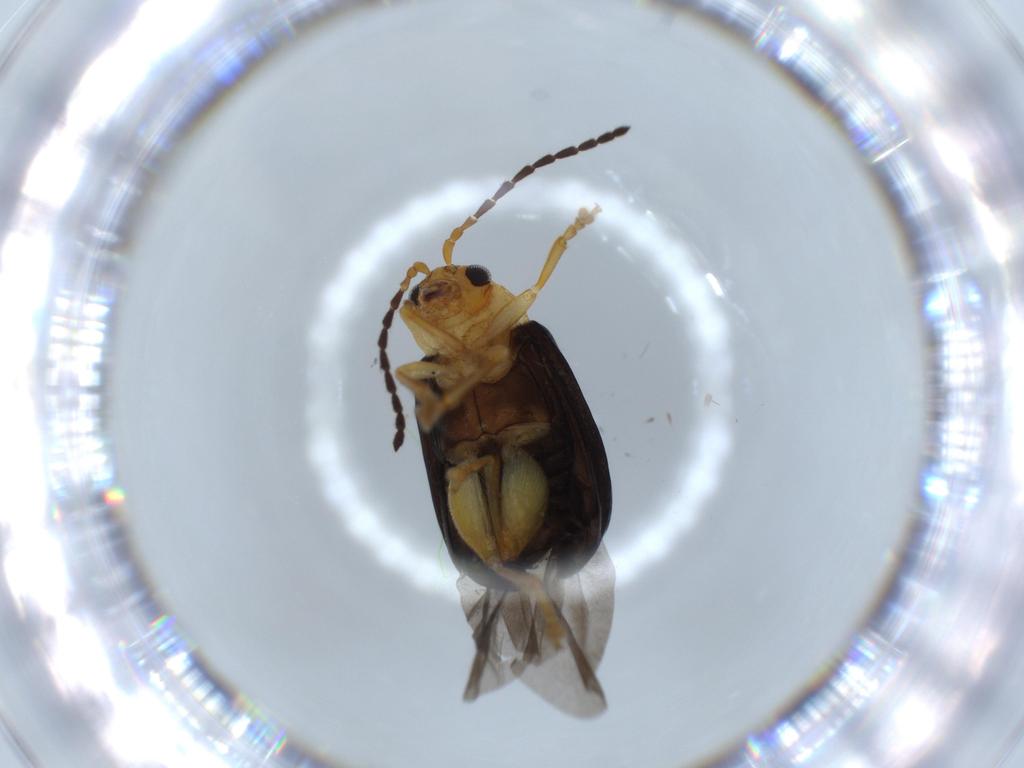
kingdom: Animalia
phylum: Arthropoda
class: Insecta
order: Coleoptera
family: Chrysomelidae
